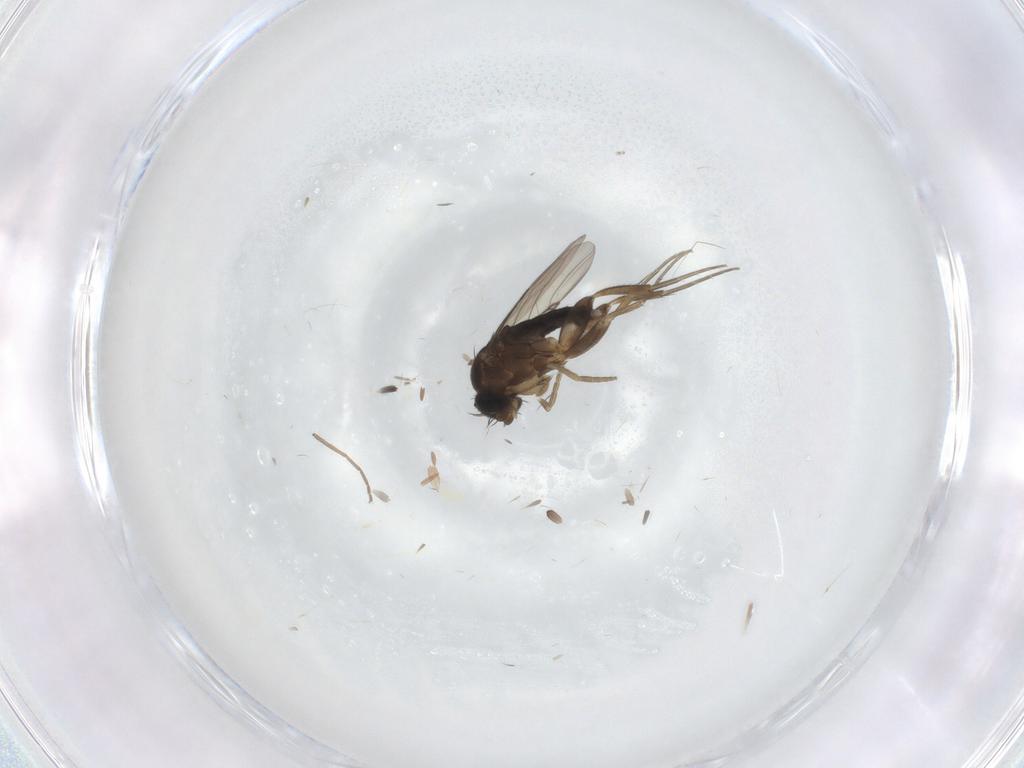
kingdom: Animalia
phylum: Arthropoda
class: Insecta
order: Diptera
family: Phoridae
